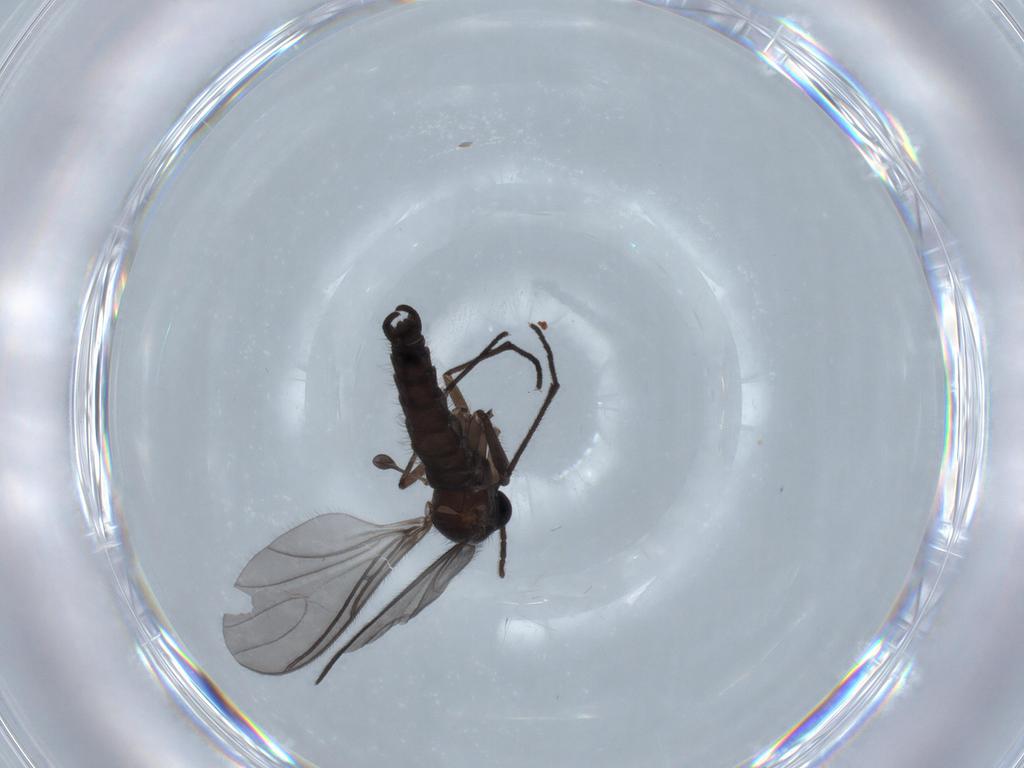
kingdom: Animalia
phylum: Arthropoda
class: Insecta
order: Diptera
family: Sciaridae
